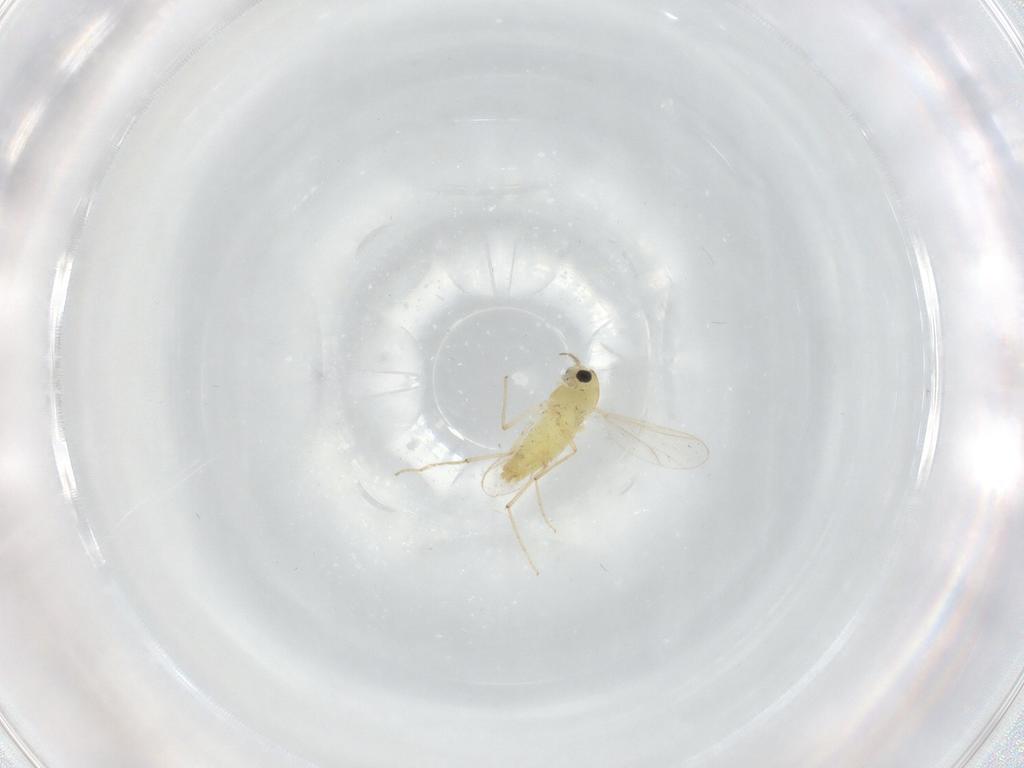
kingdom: Animalia
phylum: Arthropoda
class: Insecta
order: Diptera
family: Chironomidae
